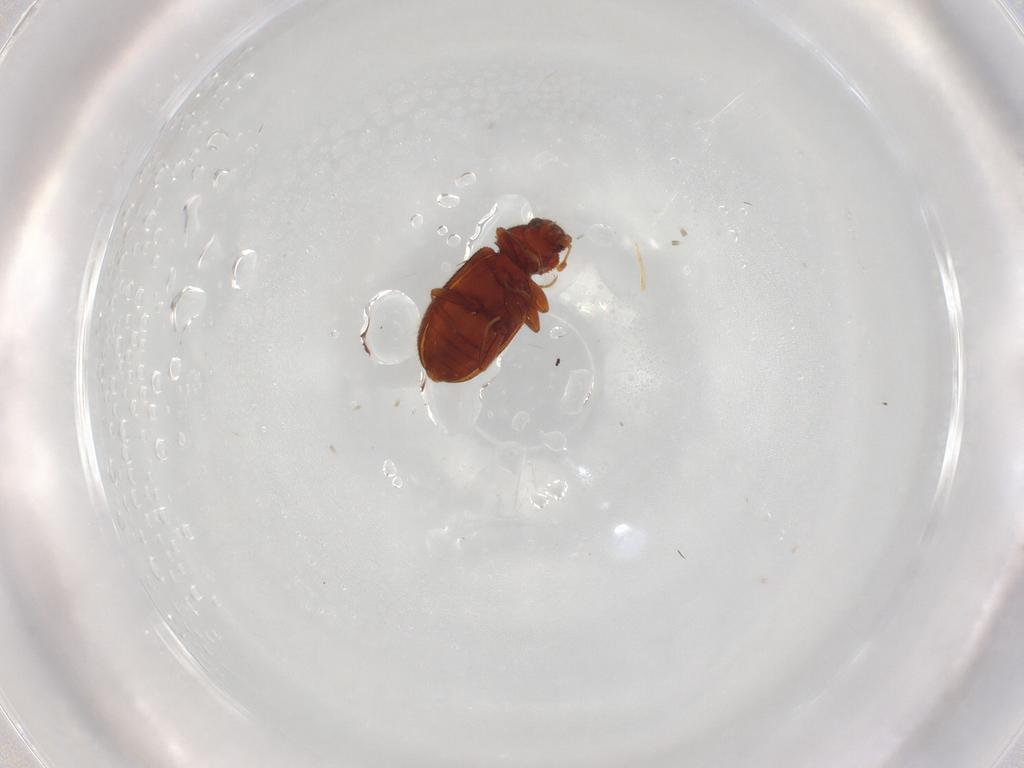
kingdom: Animalia
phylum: Arthropoda
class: Insecta
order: Coleoptera
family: Latridiidae
